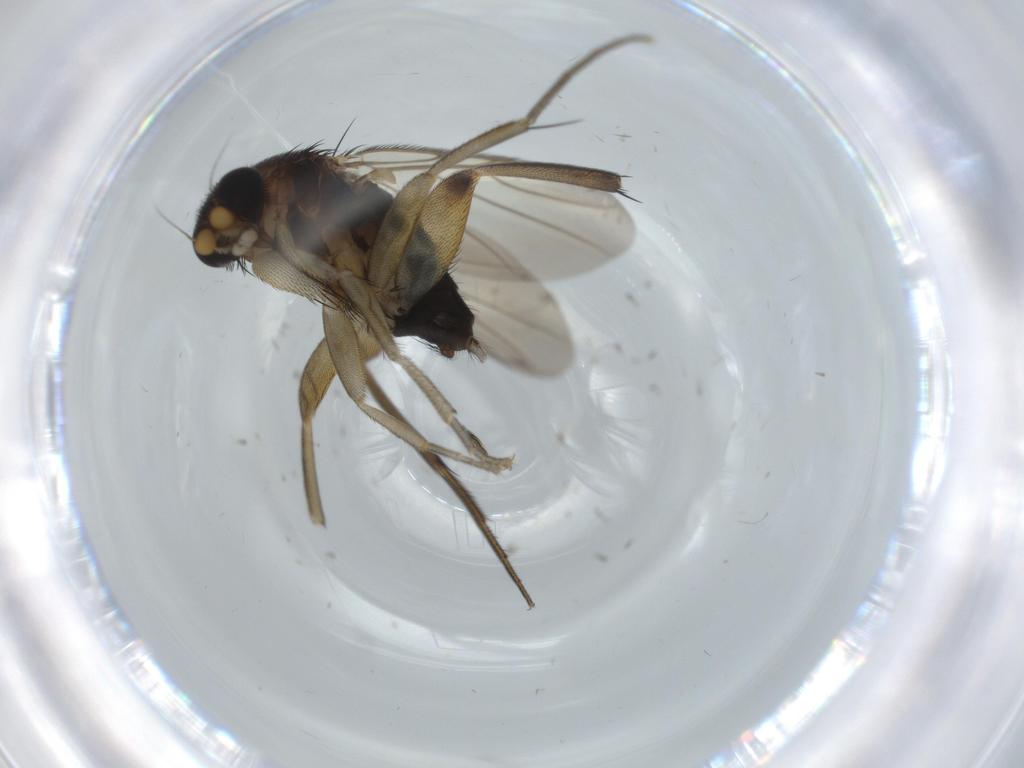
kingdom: Animalia
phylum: Arthropoda
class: Insecta
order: Diptera
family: Phoridae
